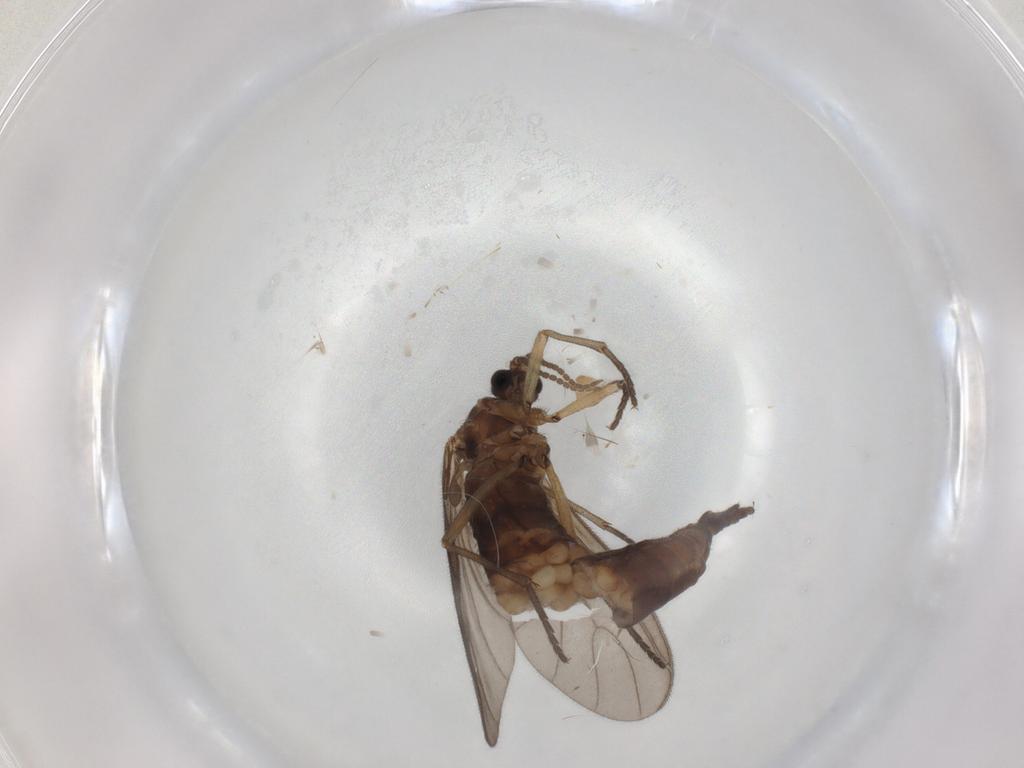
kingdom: Animalia
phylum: Arthropoda
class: Insecta
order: Diptera
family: Sciaridae
